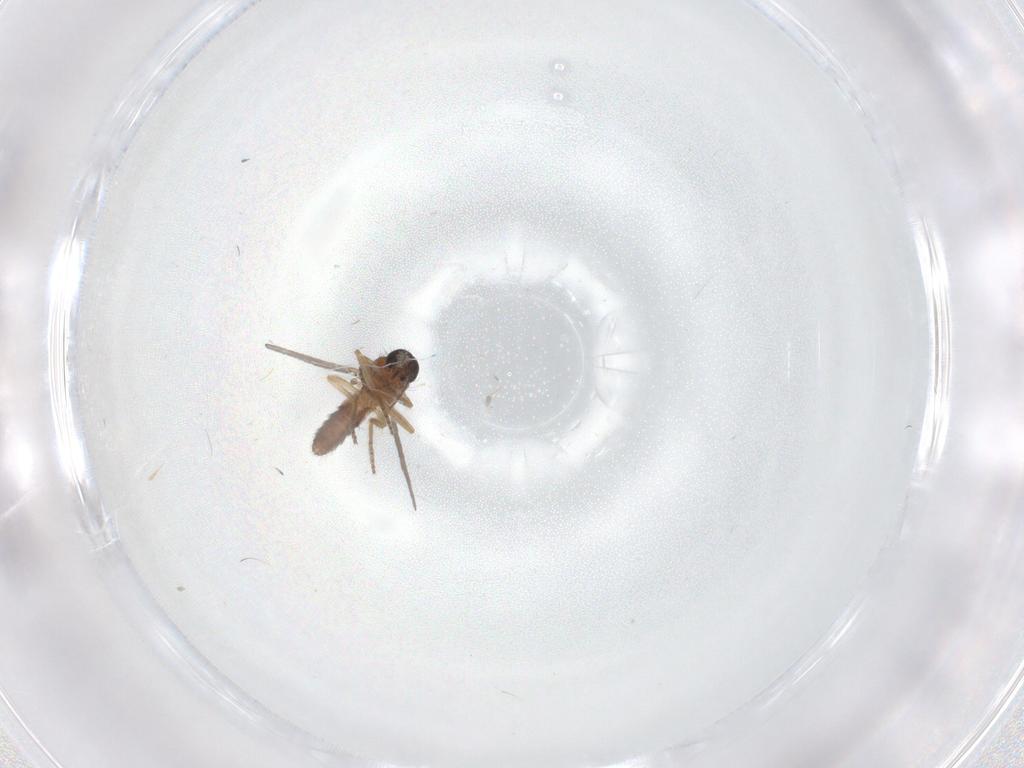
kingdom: Animalia
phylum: Arthropoda
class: Insecta
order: Diptera
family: Ceratopogonidae
